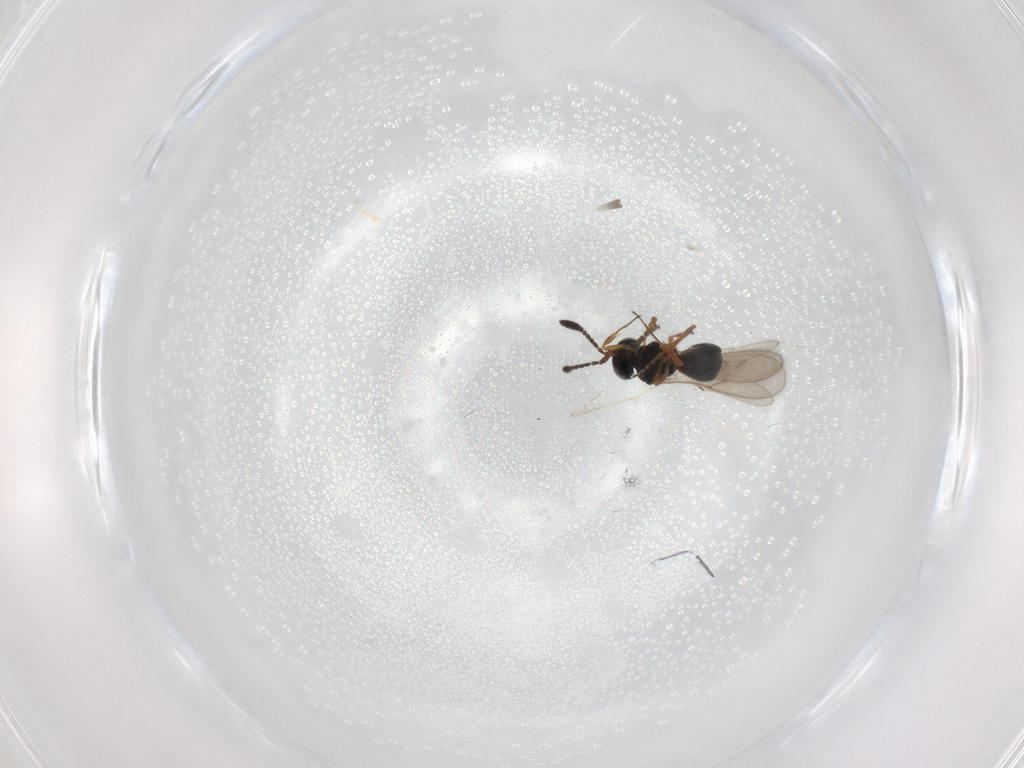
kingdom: Animalia
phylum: Arthropoda
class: Insecta
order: Hymenoptera
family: Scelionidae
